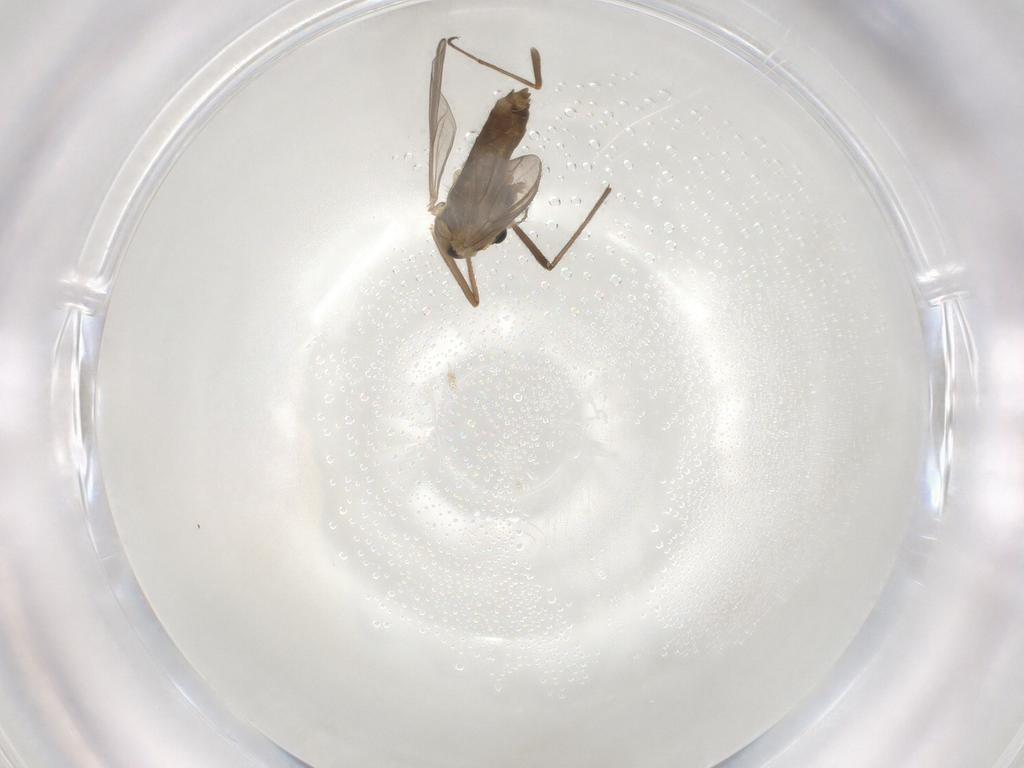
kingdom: Animalia
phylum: Arthropoda
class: Insecta
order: Diptera
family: Chironomidae
